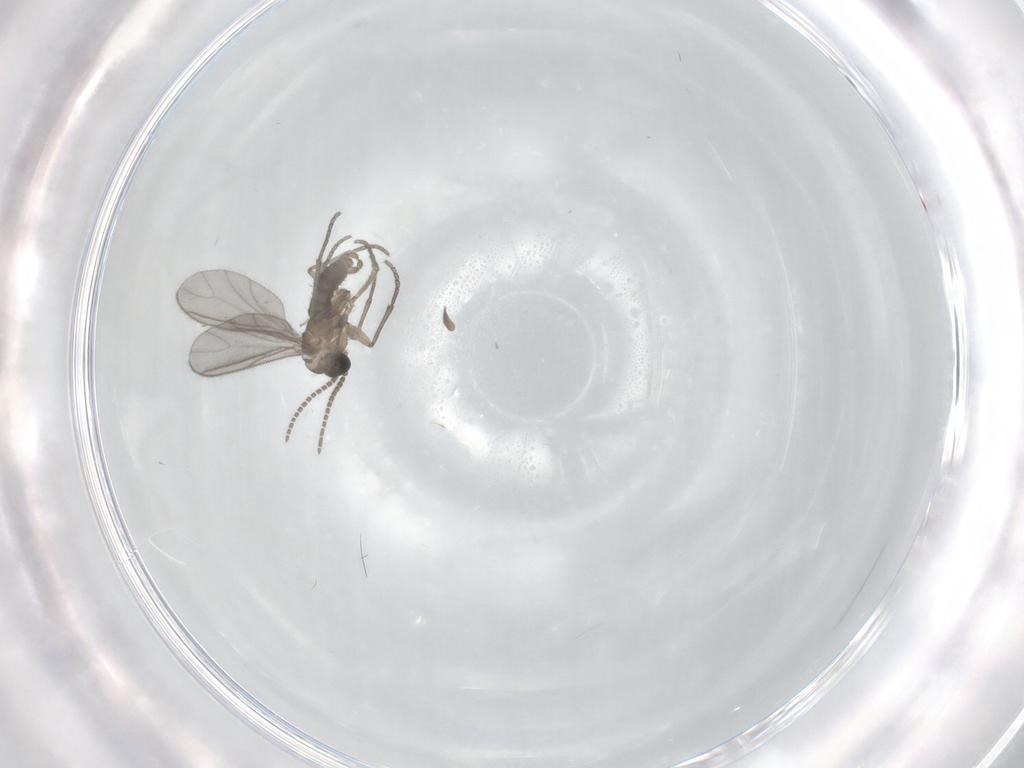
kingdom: Animalia
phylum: Arthropoda
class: Insecta
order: Diptera
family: Sciaridae
